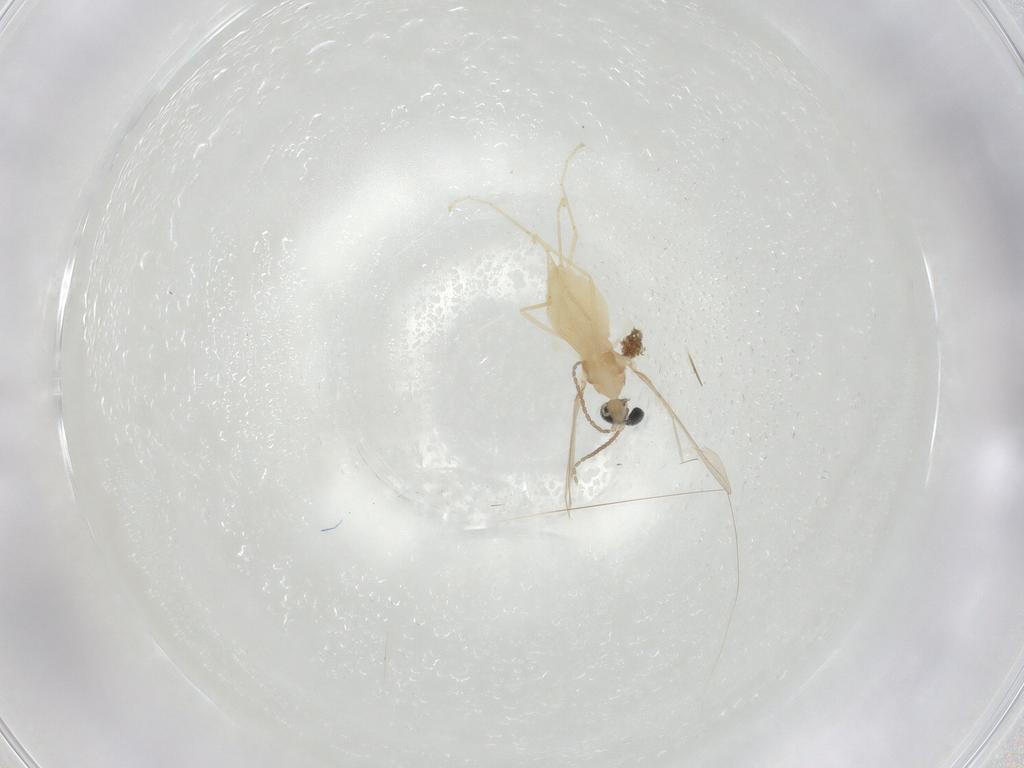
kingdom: Animalia
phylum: Arthropoda
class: Insecta
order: Diptera
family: Cecidomyiidae
